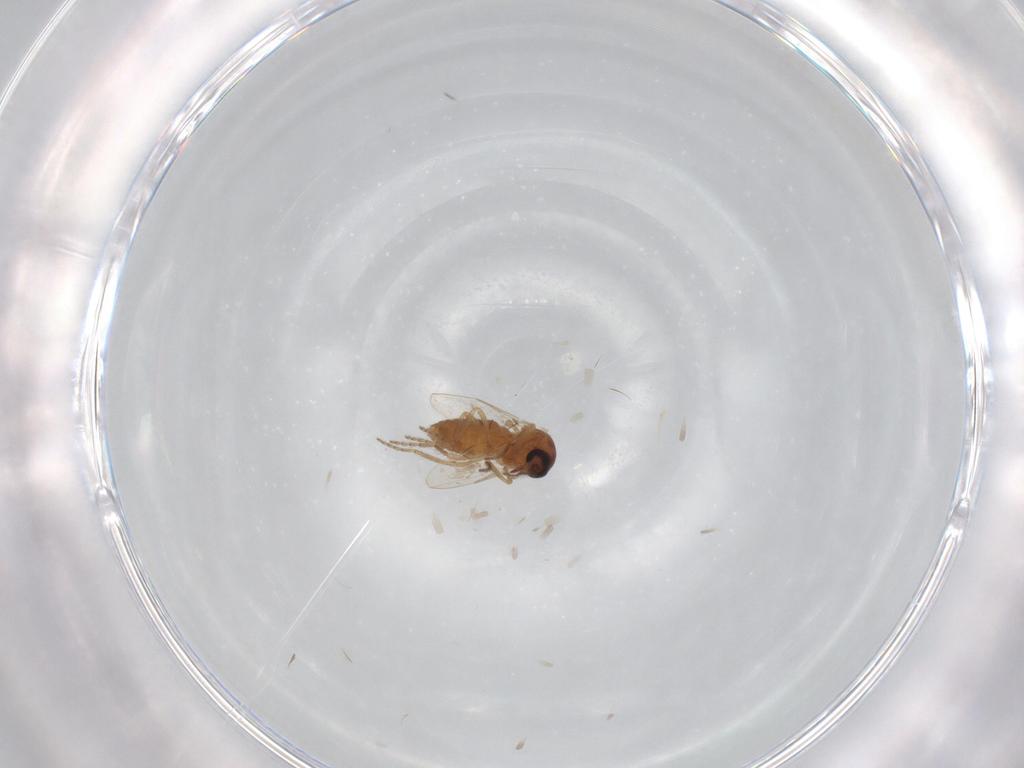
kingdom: Animalia
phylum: Arthropoda
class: Insecta
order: Diptera
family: Ceratopogonidae
